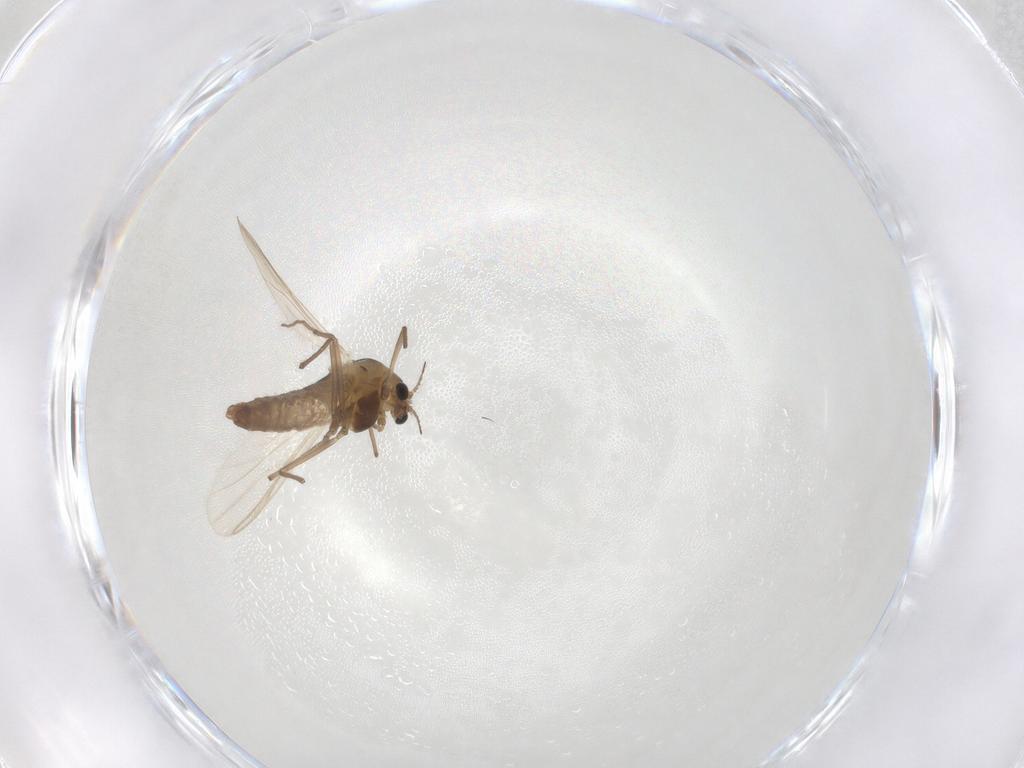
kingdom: Animalia
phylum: Arthropoda
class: Insecta
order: Diptera
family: Chironomidae
